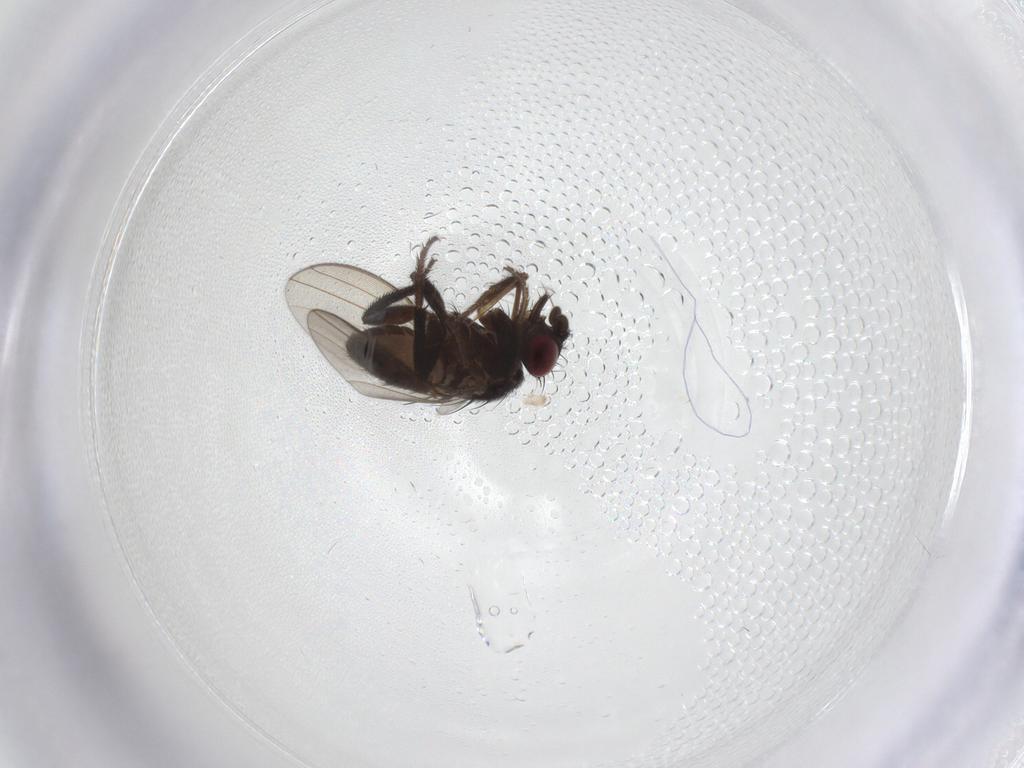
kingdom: Animalia
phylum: Arthropoda
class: Insecta
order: Diptera
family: Milichiidae
